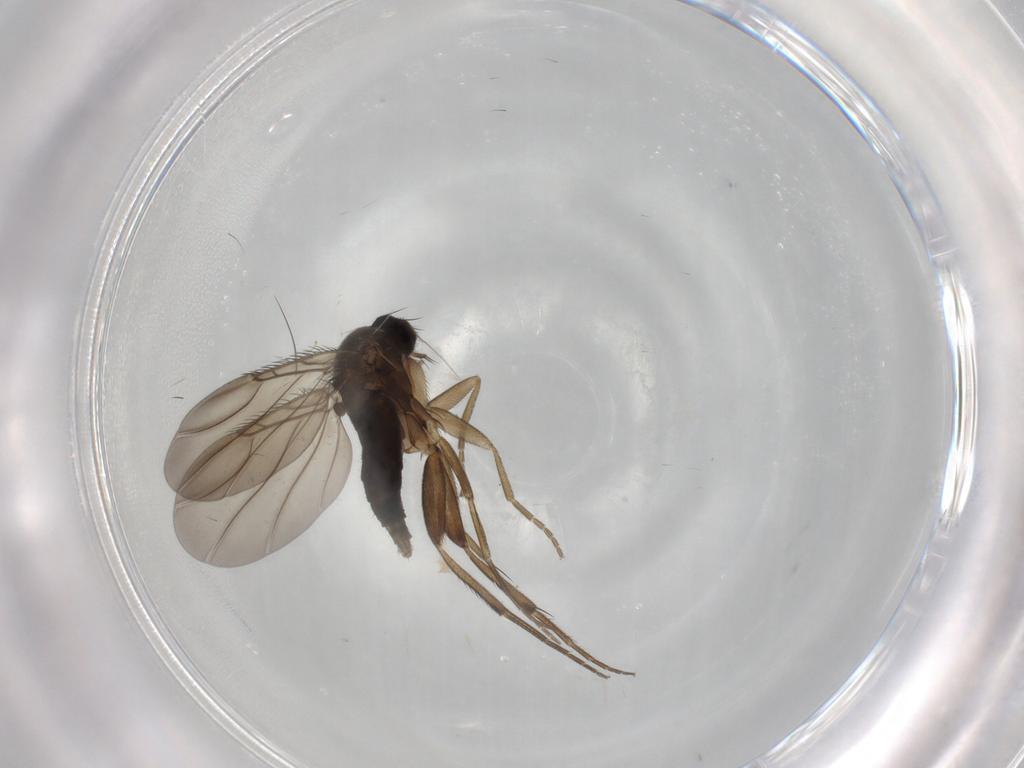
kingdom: Animalia
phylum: Arthropoda
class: Insecta
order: Diptera
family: Phoridae
